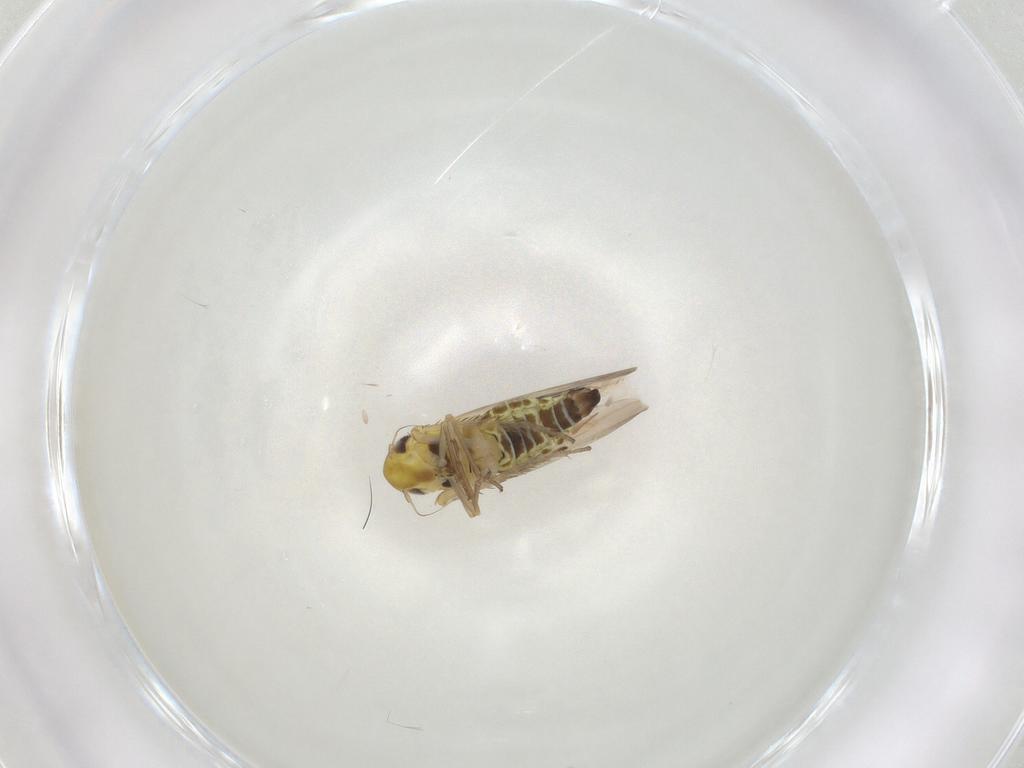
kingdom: Animalia
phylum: Arthropoda
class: Insecta
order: Hemiptera
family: Cicadellidae
